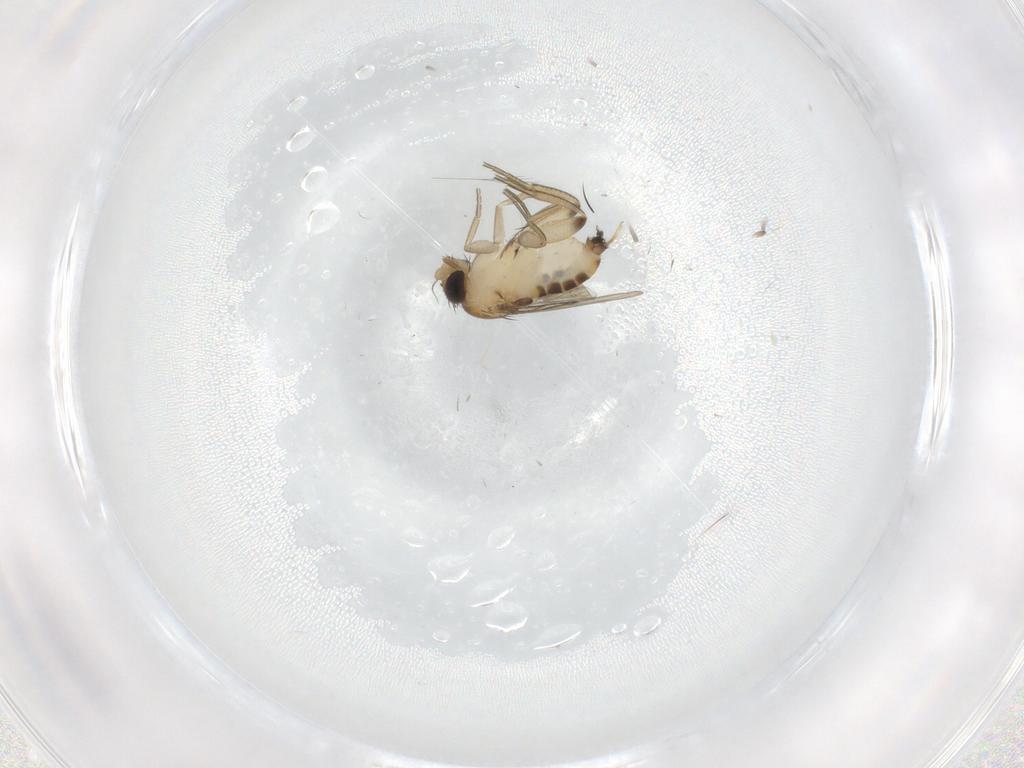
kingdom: Animalia
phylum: Arthropoda
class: Insecta
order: Diptera
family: Phoridae
